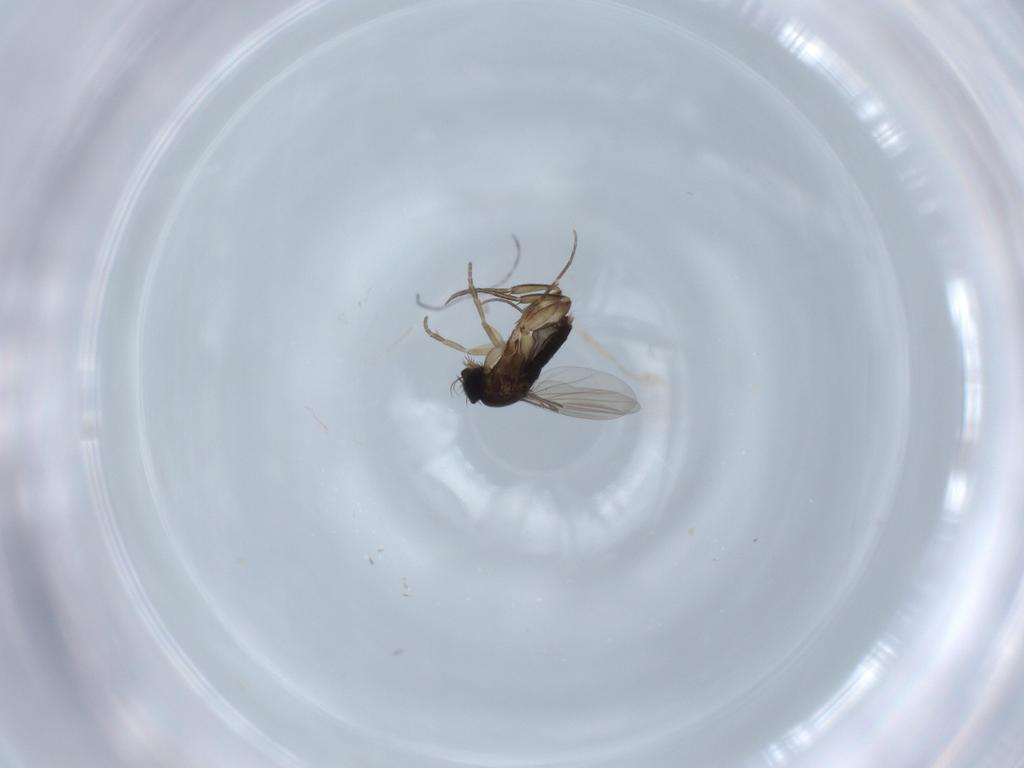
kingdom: Animalia
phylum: Arthropoda
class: Insecta
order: Diptera
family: Phoridae
